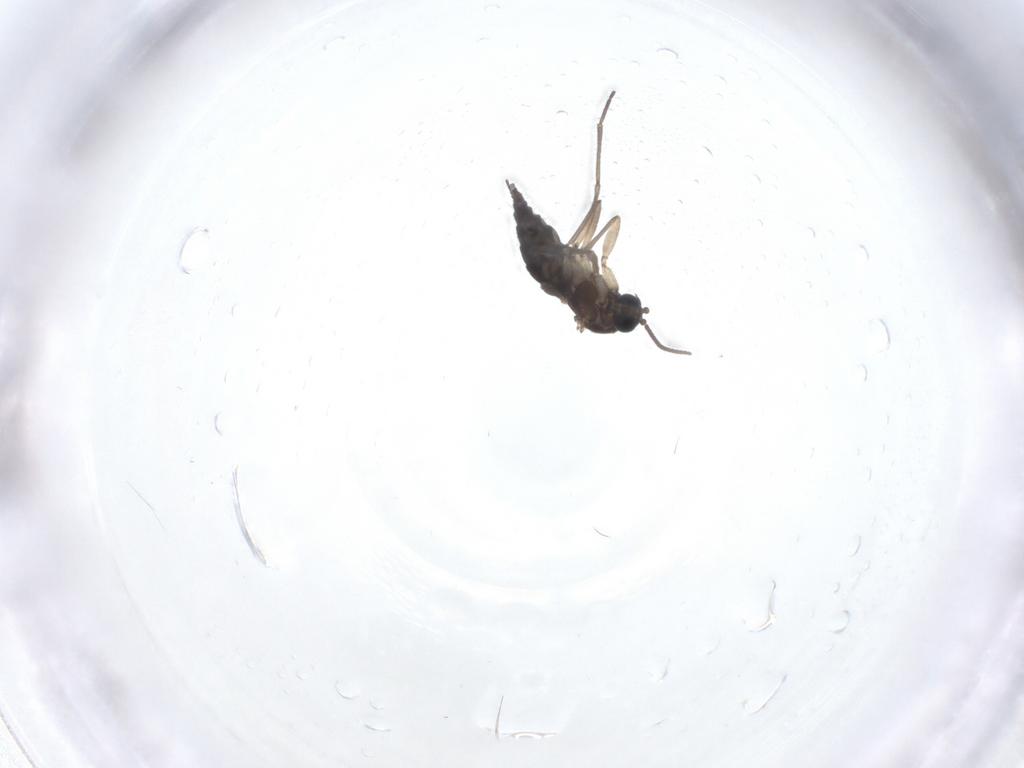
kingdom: Animalia
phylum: Arthropoda
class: Insecta
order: Diptera
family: Sciaridae
